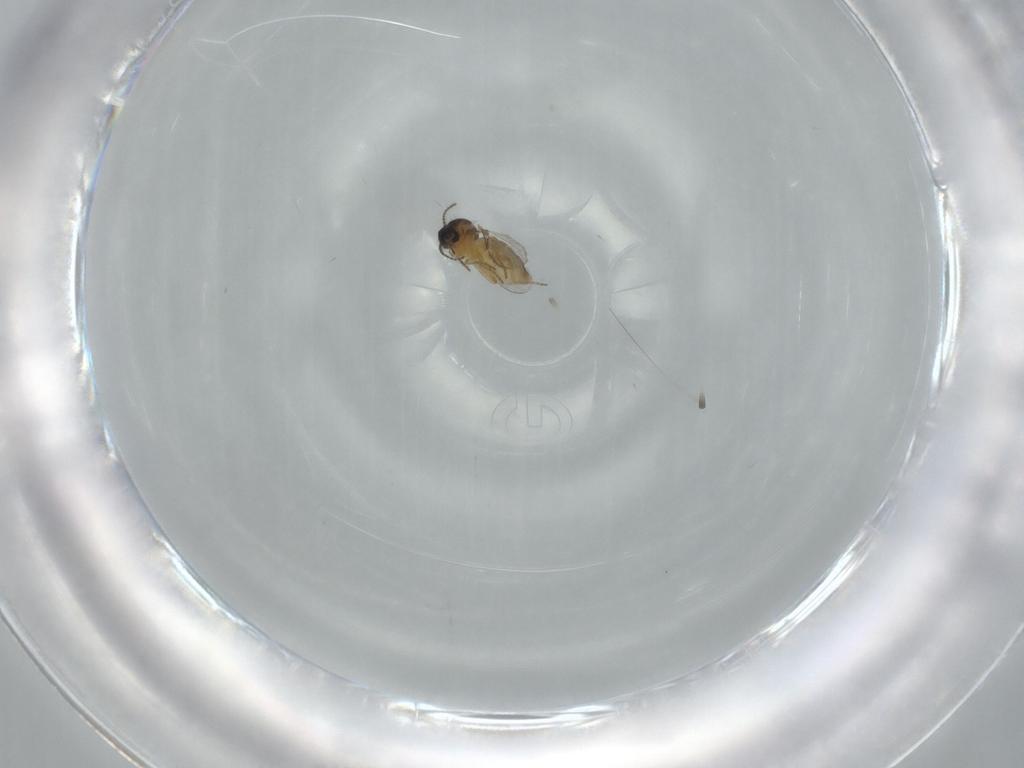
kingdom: Animalia
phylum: Arthropoda
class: Insecta
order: Diptera
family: Ceratopogonidae
